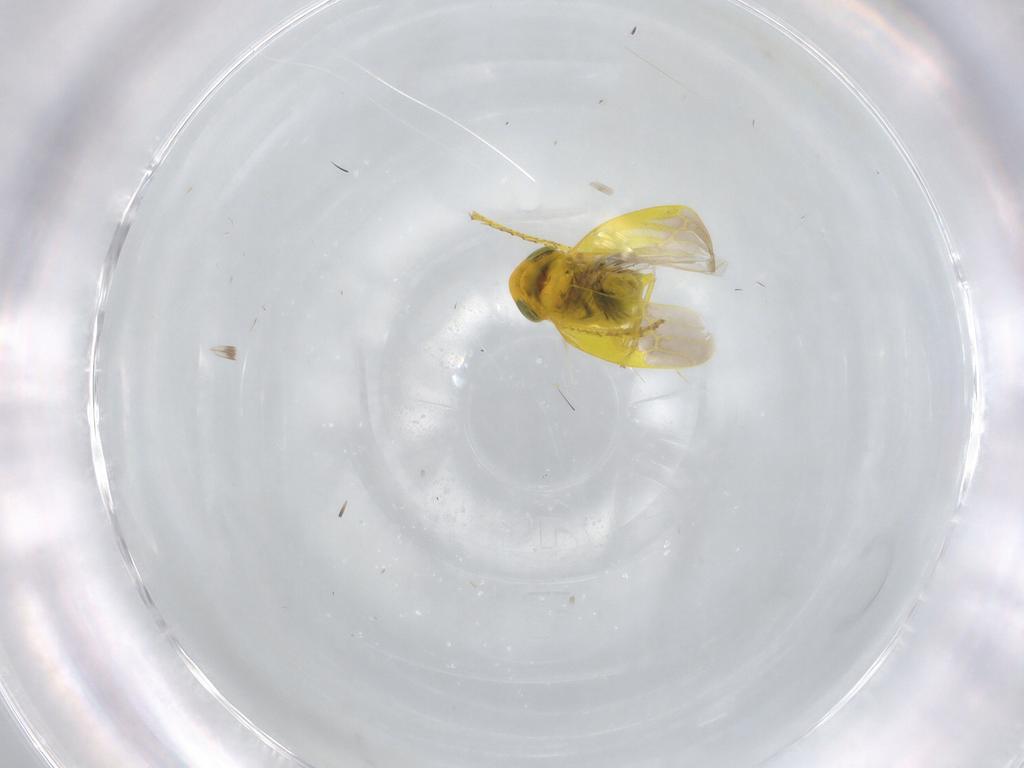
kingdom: Animalia
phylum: Arthropoda
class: Insecta
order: Hemiptera
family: Cicadellidae
